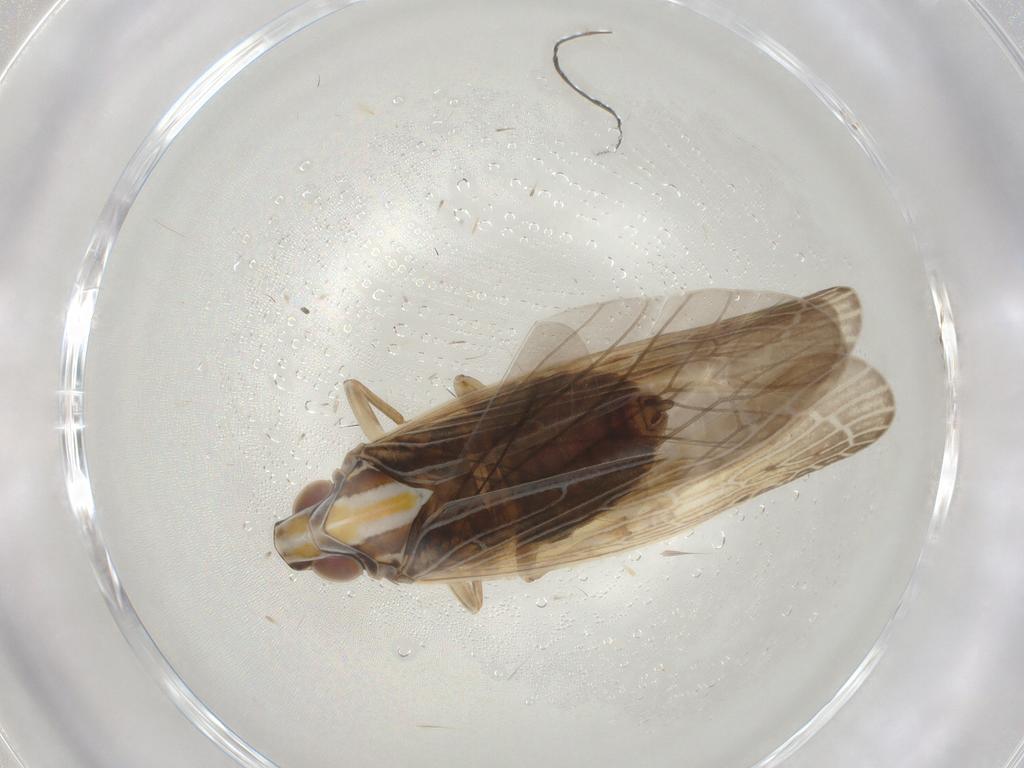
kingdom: Animalia
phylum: Arthropoda
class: Insecta
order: Hemiptera
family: Achilidae
